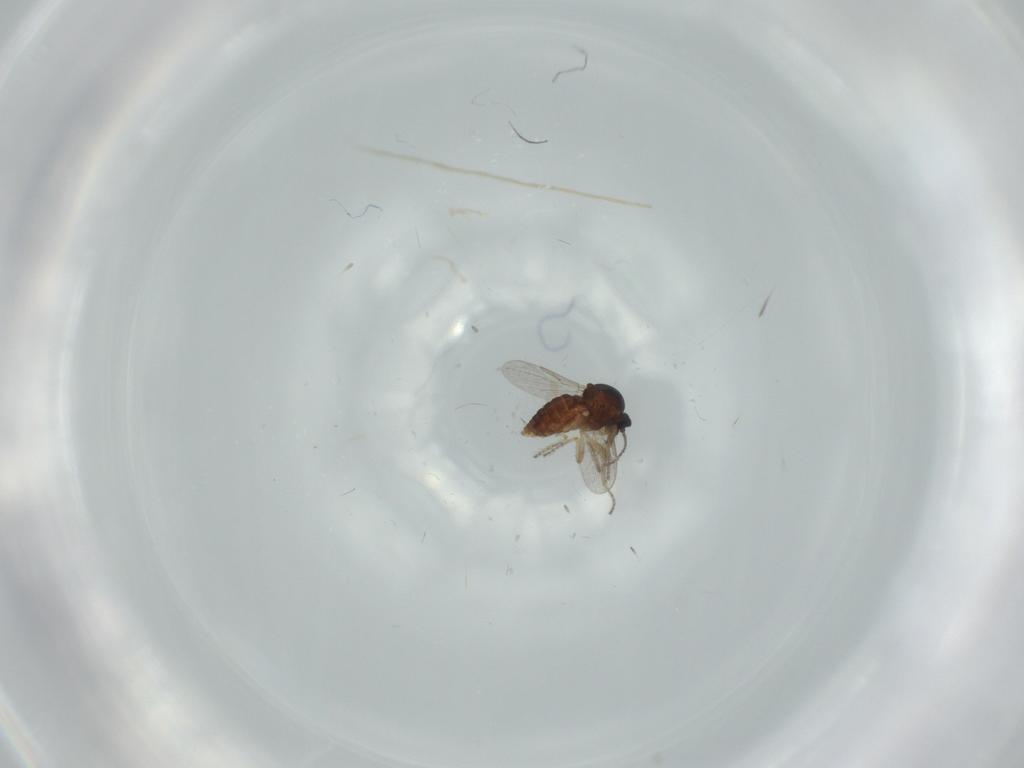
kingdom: Animalia
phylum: Arthropoda
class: Insecta
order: Diptera
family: Ceratopogonidae
